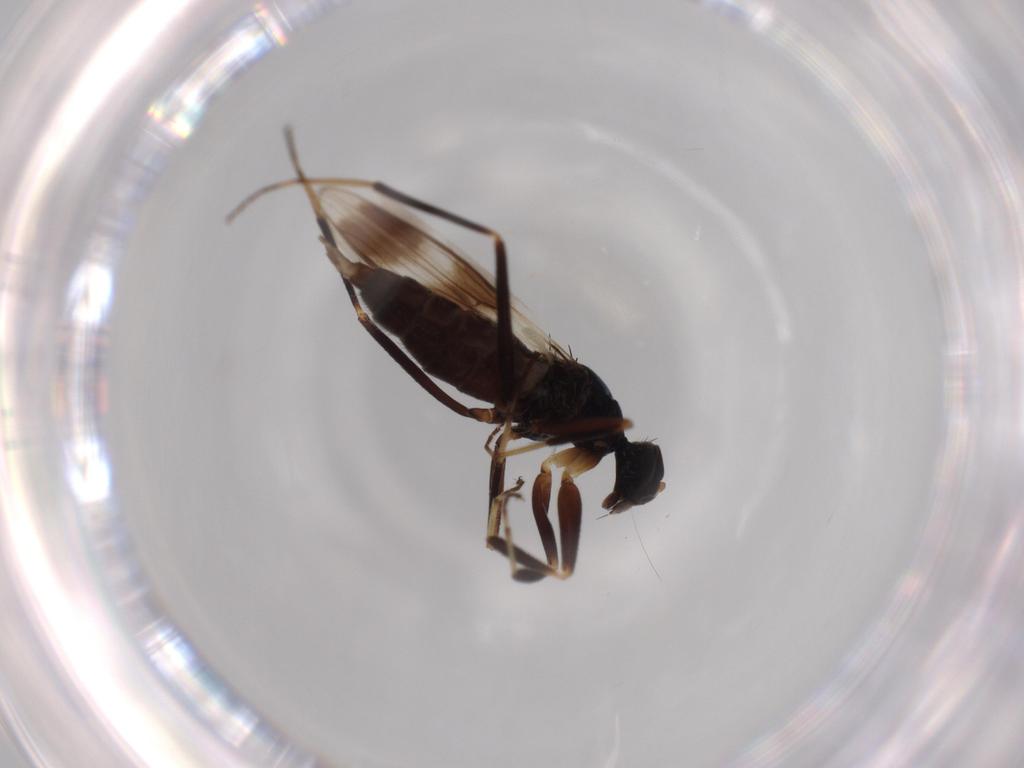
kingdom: Animalia
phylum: Arthropoda
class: Insecta
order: Diptera
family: Hybotidae
